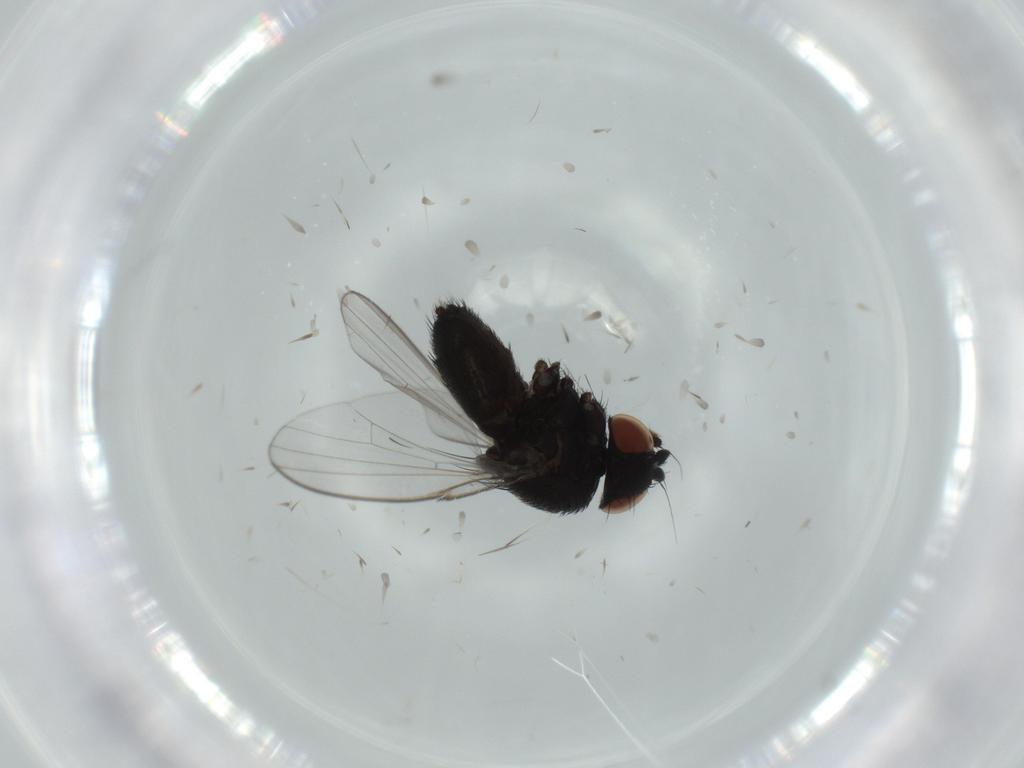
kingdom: Animalia
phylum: Arthropoda
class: Insecta
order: Diptera
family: Milichiidae
